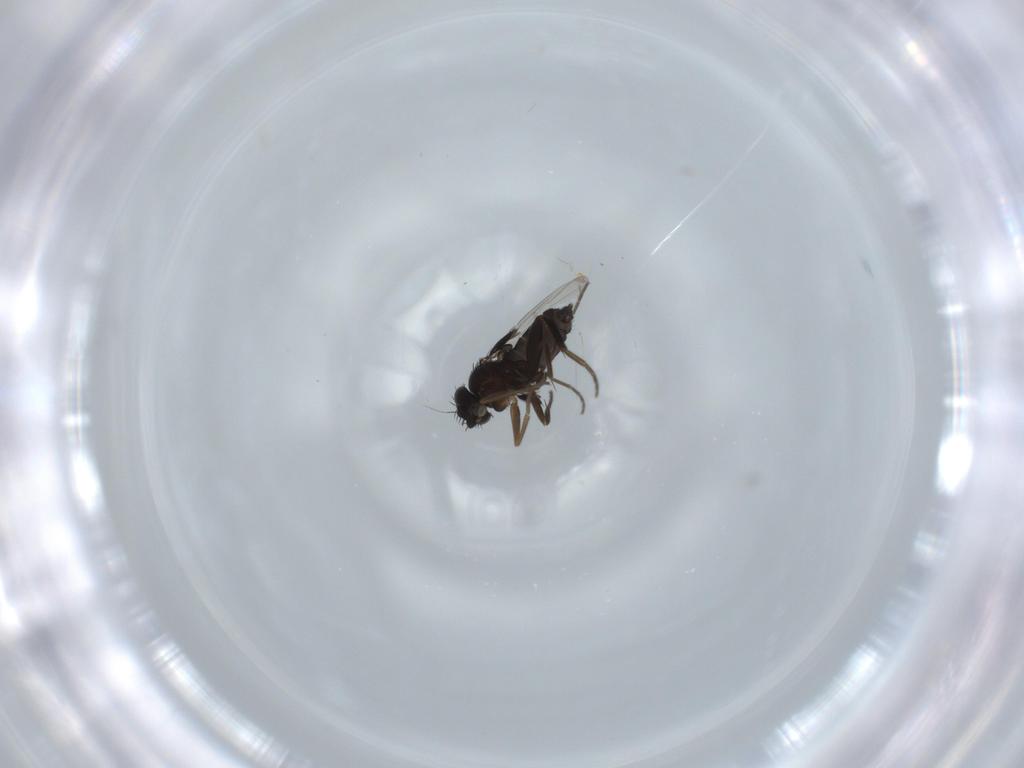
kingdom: Animalia
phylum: Arthropoda
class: Insecta
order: Diptera
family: Phoridae
